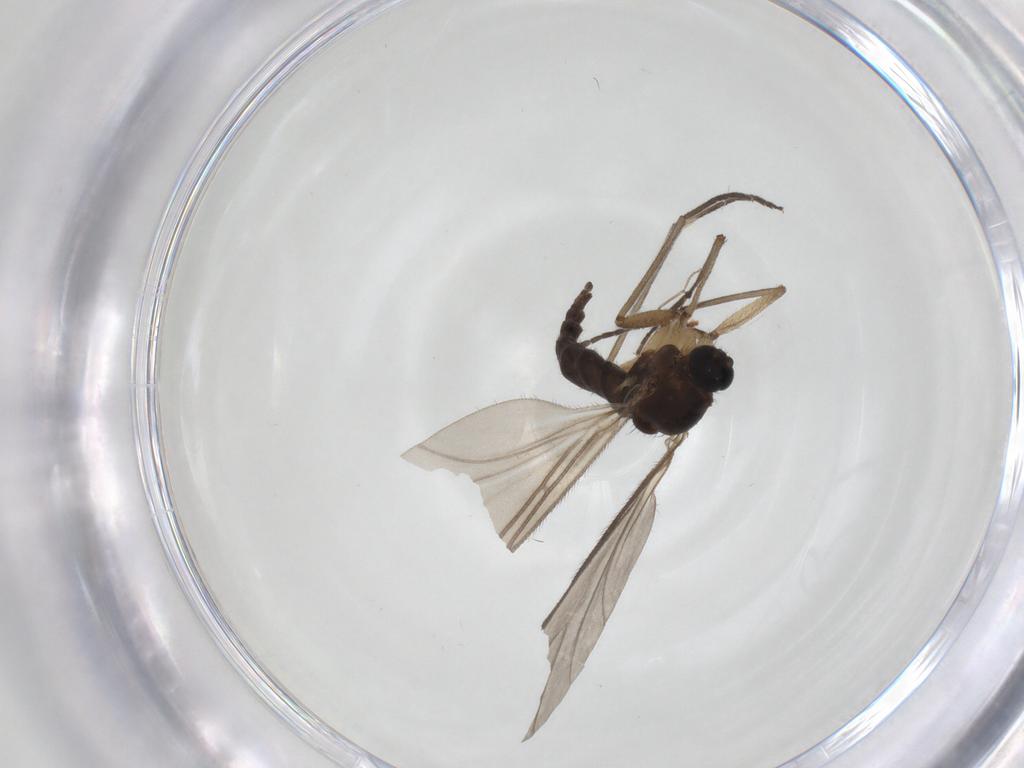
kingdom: Animalia
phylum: Arthropoda
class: Insecta
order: Diptera
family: Sciaridae
